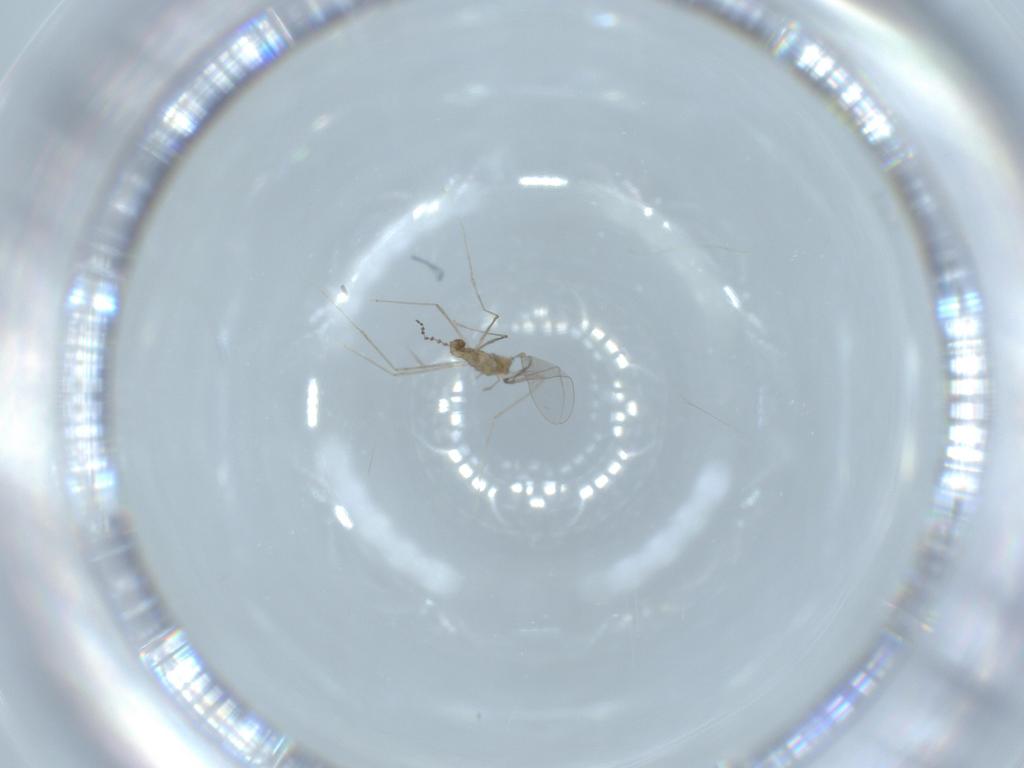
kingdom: Animalia
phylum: Arthropoda
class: Insecta
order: Diptera
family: Cecidomyiidae
